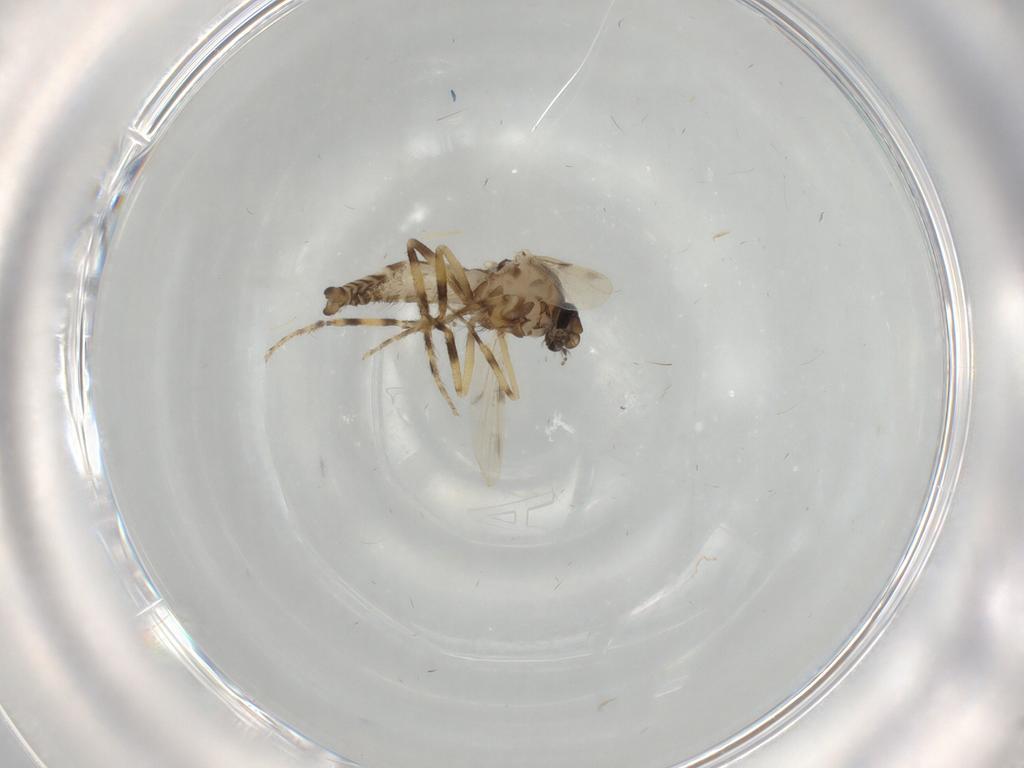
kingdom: Animalia
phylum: Arthropoda
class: Insecta
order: Diptera
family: Ceratopogonidae
